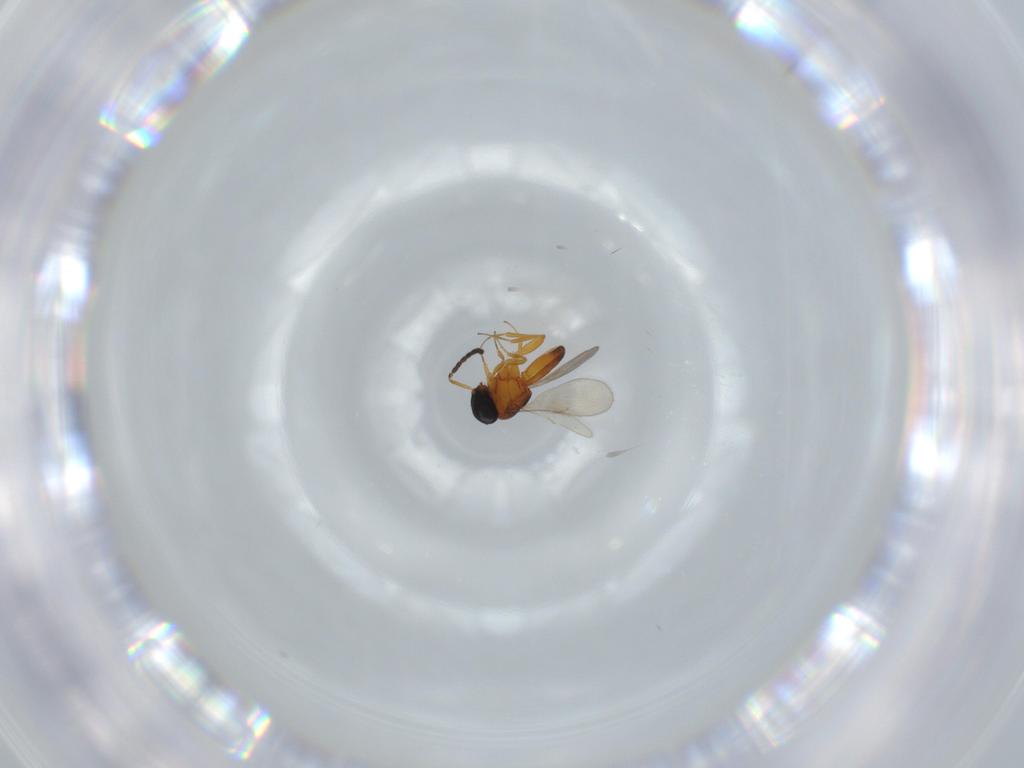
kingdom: Animalia
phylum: Arthropoda
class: Insecta
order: Hymenoptera
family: Scelionidae
